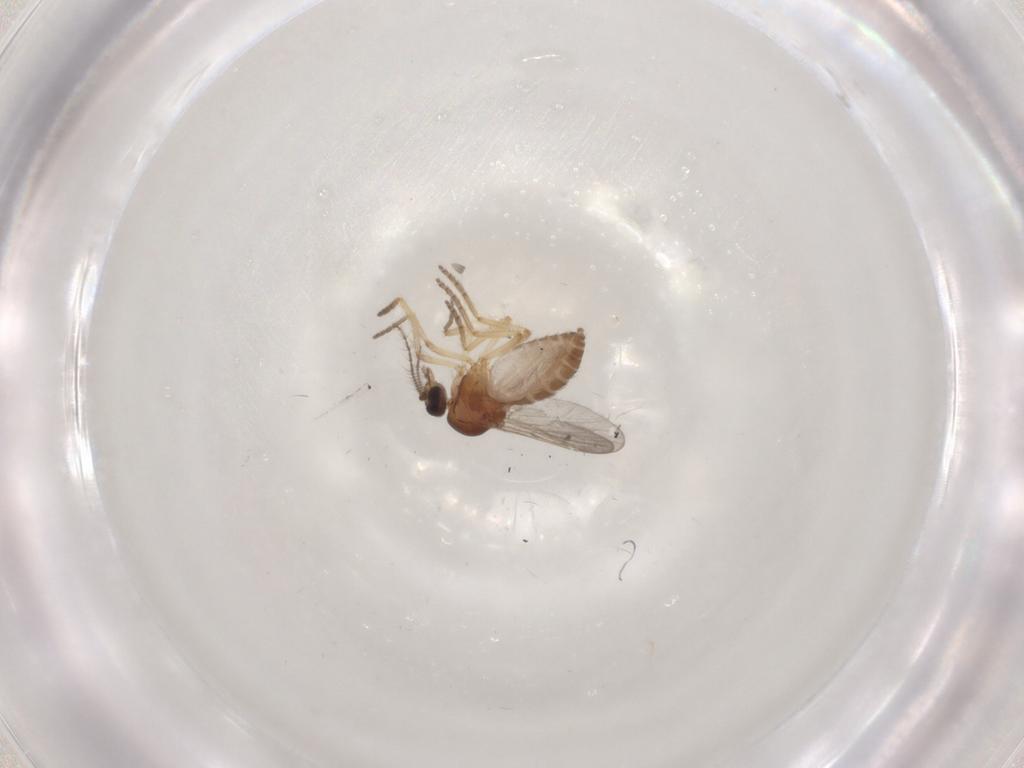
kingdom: Animalia
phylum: Arthropoda
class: Insecta
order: Diptera
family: Ceratopogonidae
